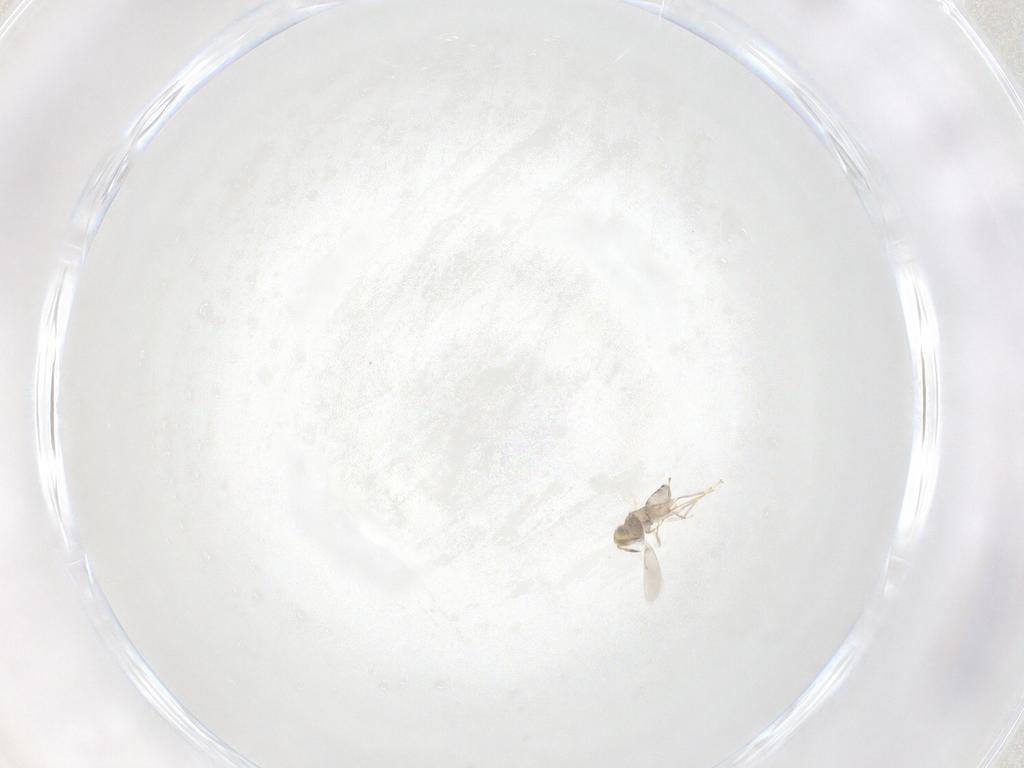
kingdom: Animalia
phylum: Arthropoda
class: Insecta
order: Hymenoptera
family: Aphelinidae
